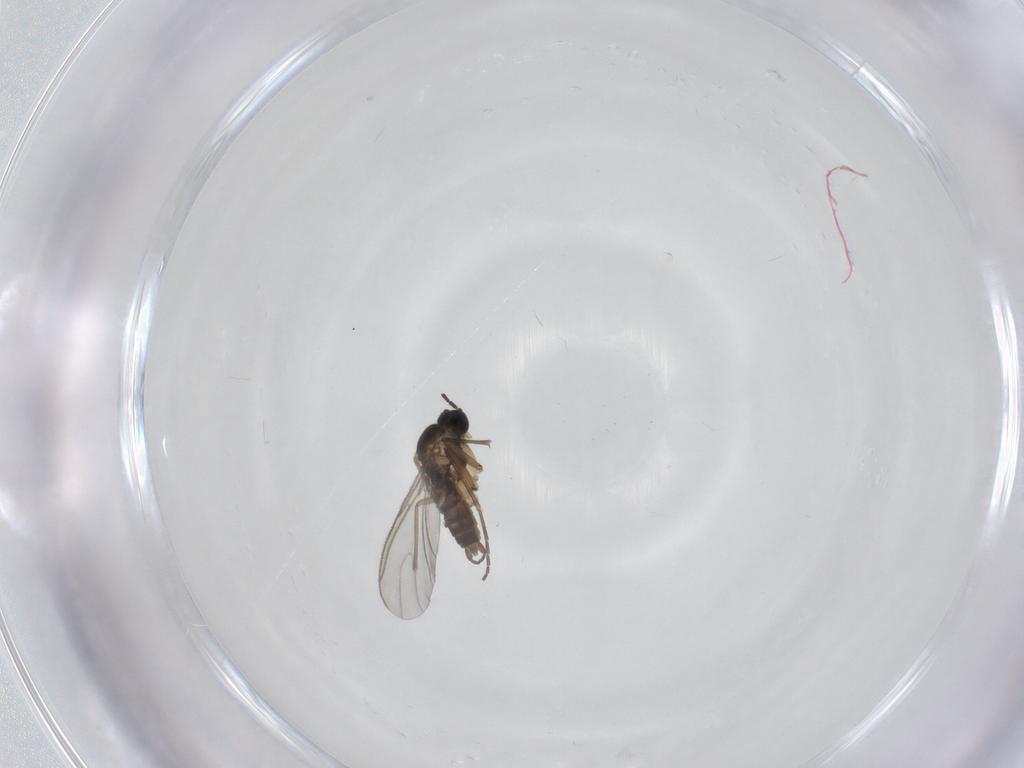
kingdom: Animalia
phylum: Arthropoda
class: Insecta
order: Diptera
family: Sciaridae
